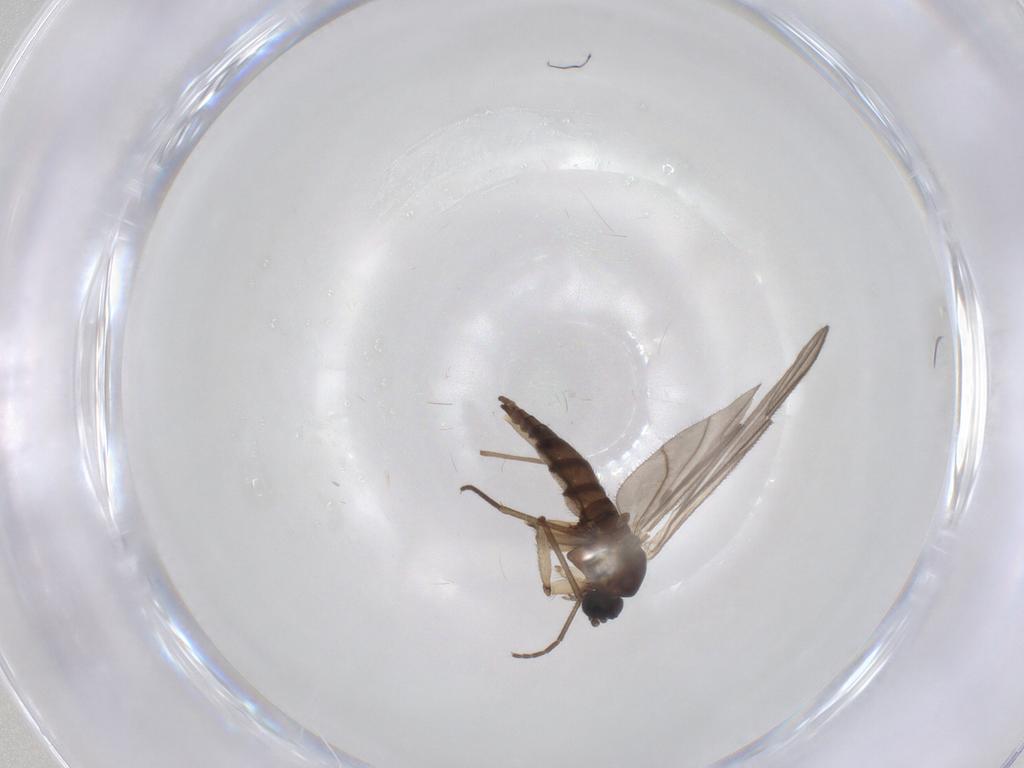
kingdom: Animalia
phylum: Arthropoda
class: Insecta
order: Diptera
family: Sciaridae
